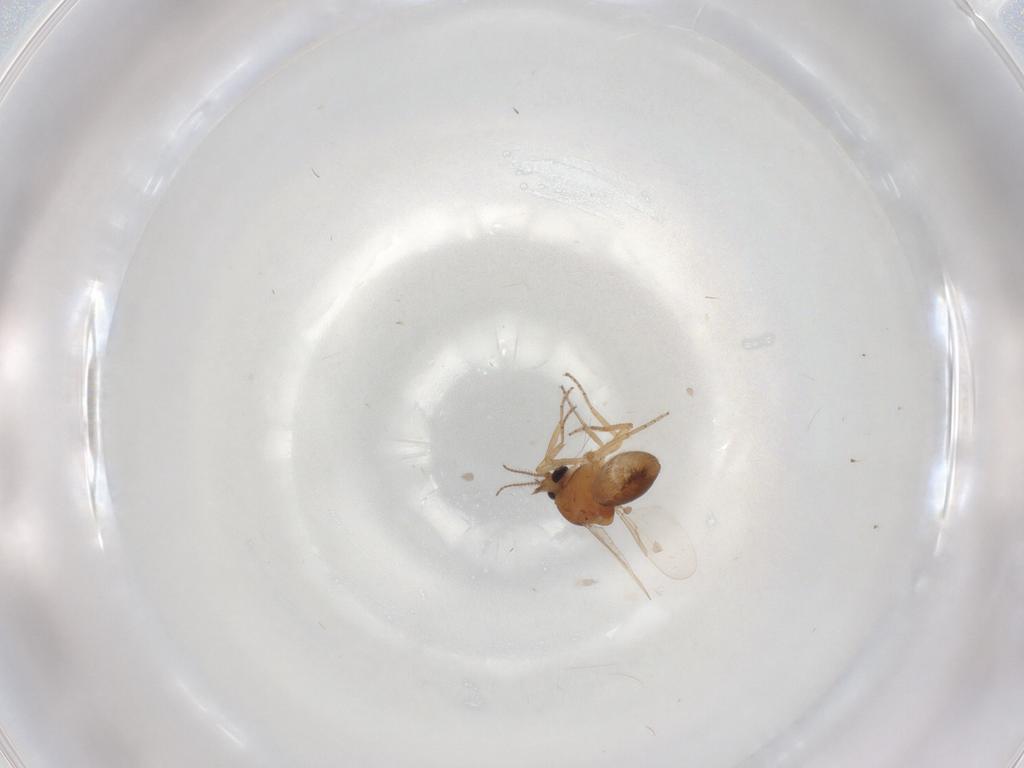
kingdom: Animalia
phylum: Arthropoda
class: Insecta
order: Diptera
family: Ceratopogonidae
